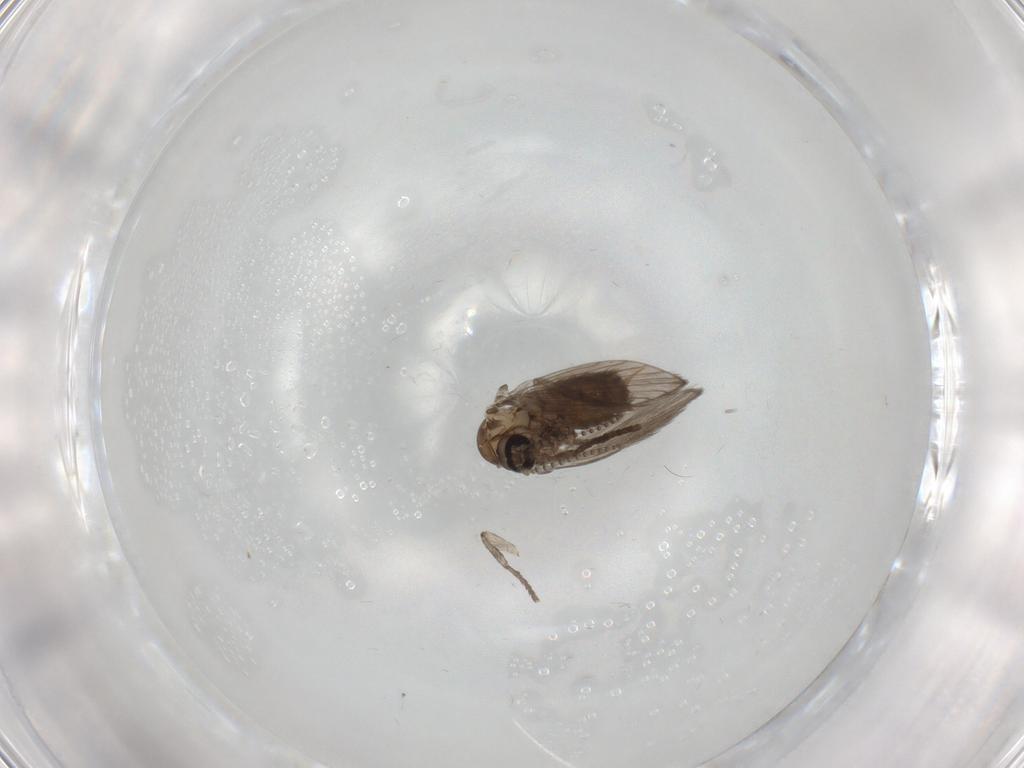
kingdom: Animalia
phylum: Arthropoda
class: Insecta
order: Diptera
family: Psychodidae
